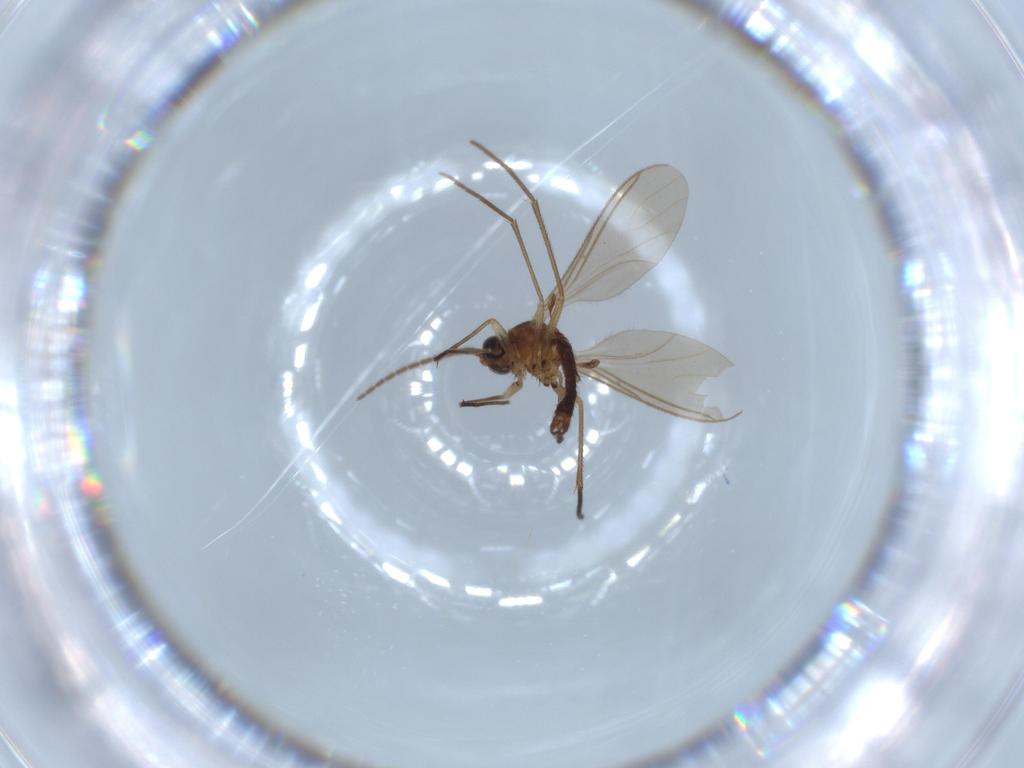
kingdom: Animalia
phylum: Arthropoda
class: Insecta
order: Diptera
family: Sciaridae
